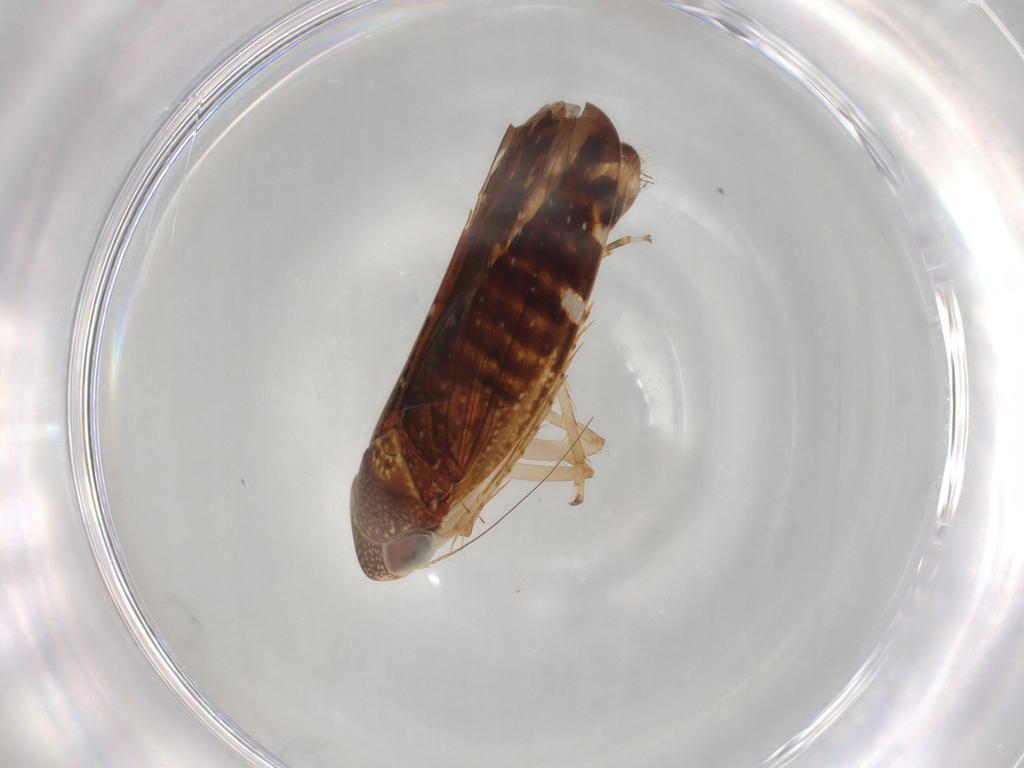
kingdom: Animalia
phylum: Arthropoda
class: Insecta
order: Hemiptera
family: Cicadellidae
